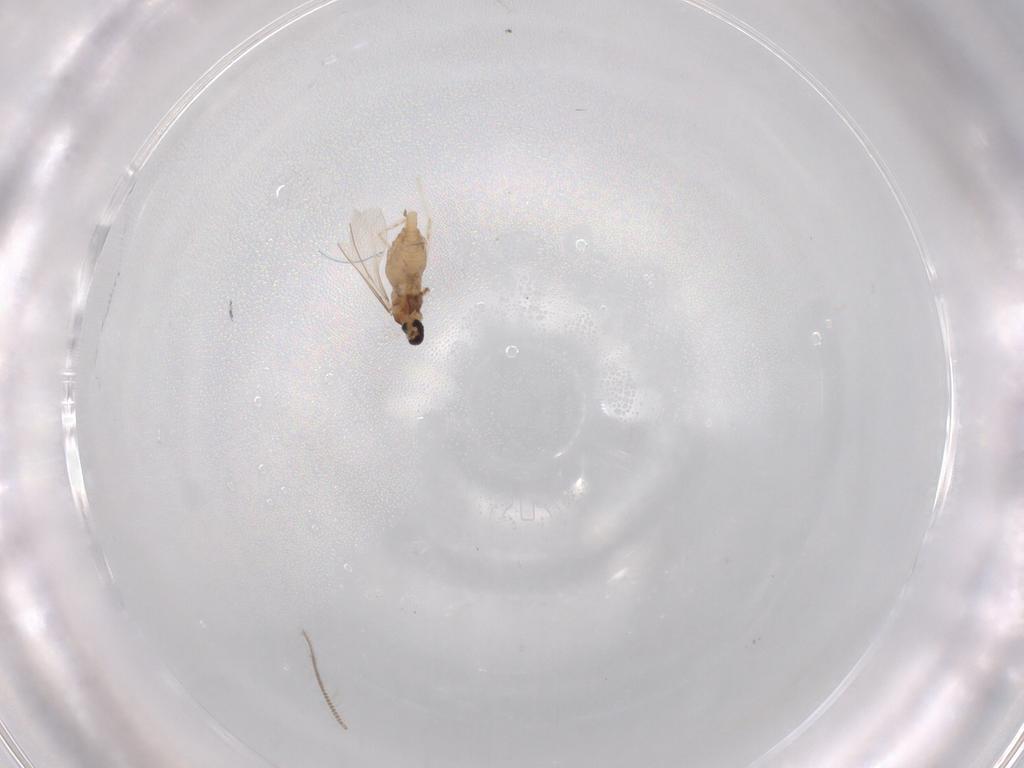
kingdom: Animalia
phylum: Arthropoda
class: Insecta
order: Diptera
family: Cecidomyiidae
